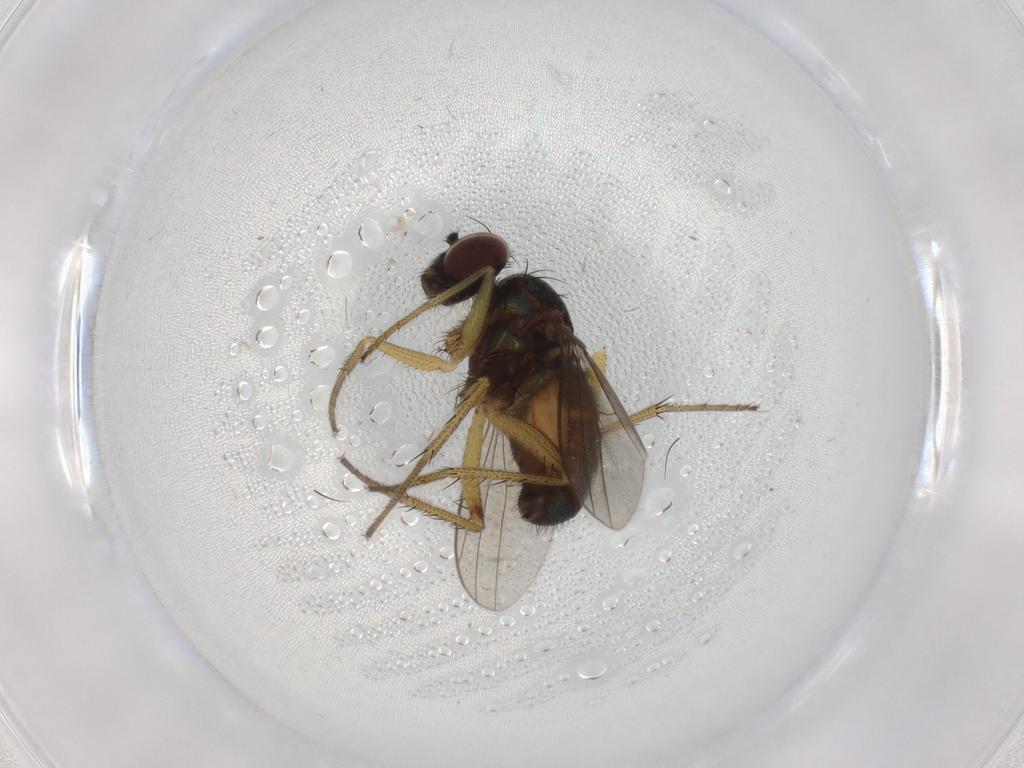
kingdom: Animalia
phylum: Arthropoda
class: Insecta
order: Diptera
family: Dolichopodidae
